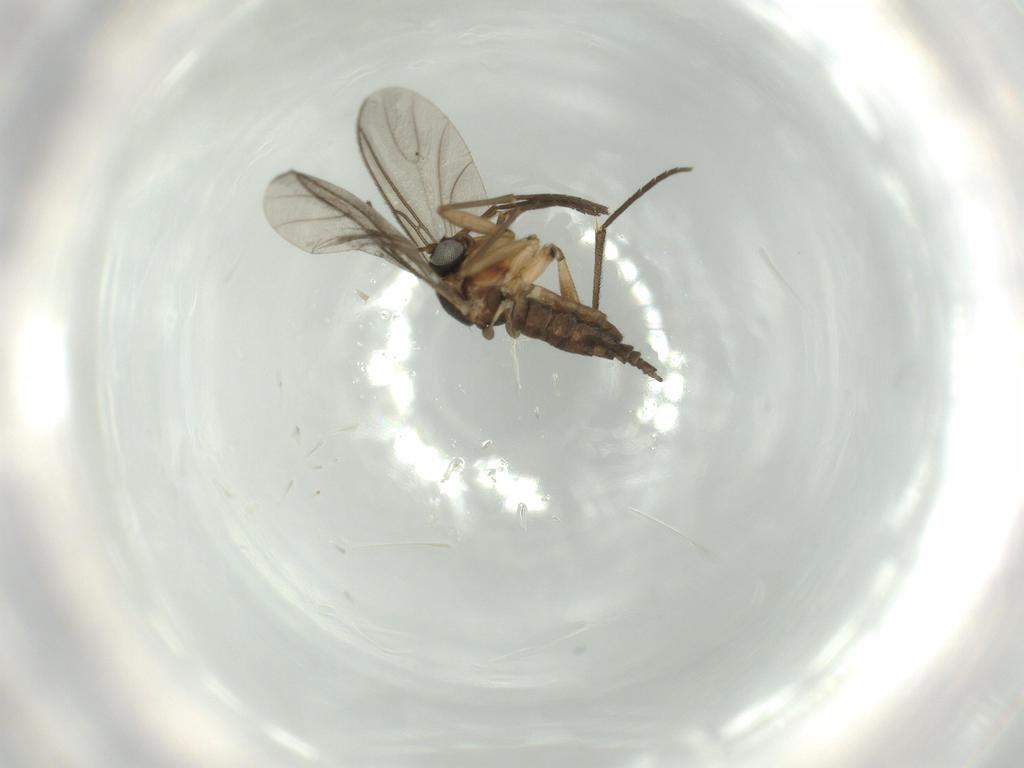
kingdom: Animalia
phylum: Arthropoda
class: Insecta
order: Diptera
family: Sciaridae
